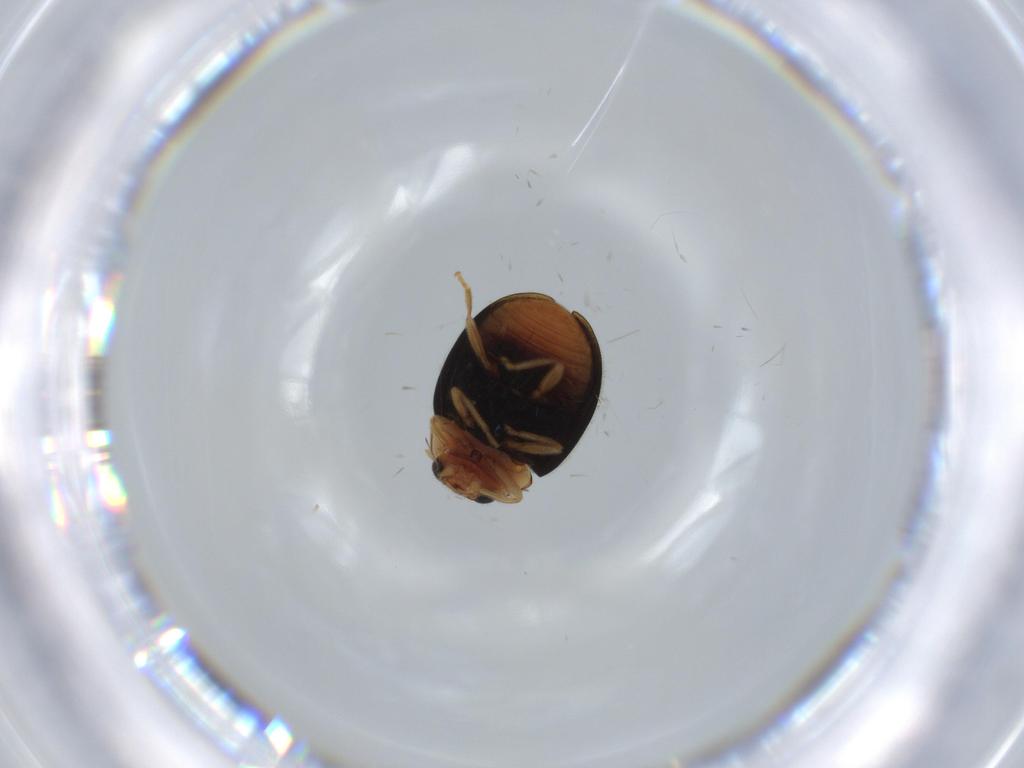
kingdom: Animalia
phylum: Arthropoda
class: Insecta
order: Coleoptera
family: Coccinellidae
